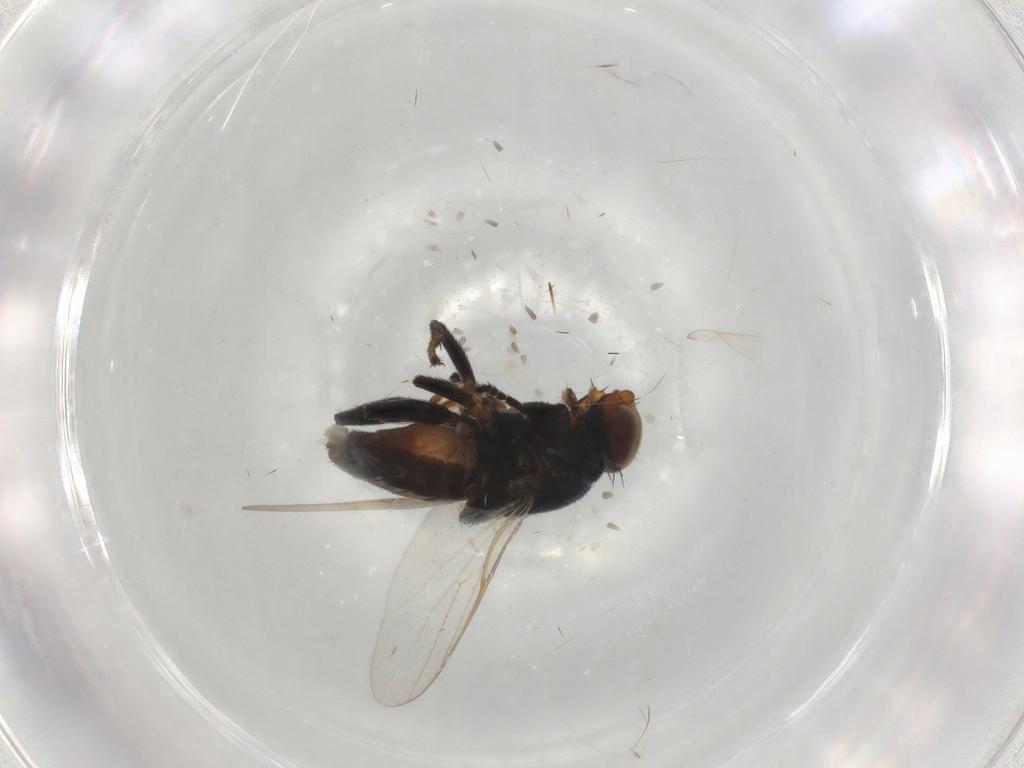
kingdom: Animalia
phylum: Arthropoda
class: Insecta
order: Diptera
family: Chloropidae
